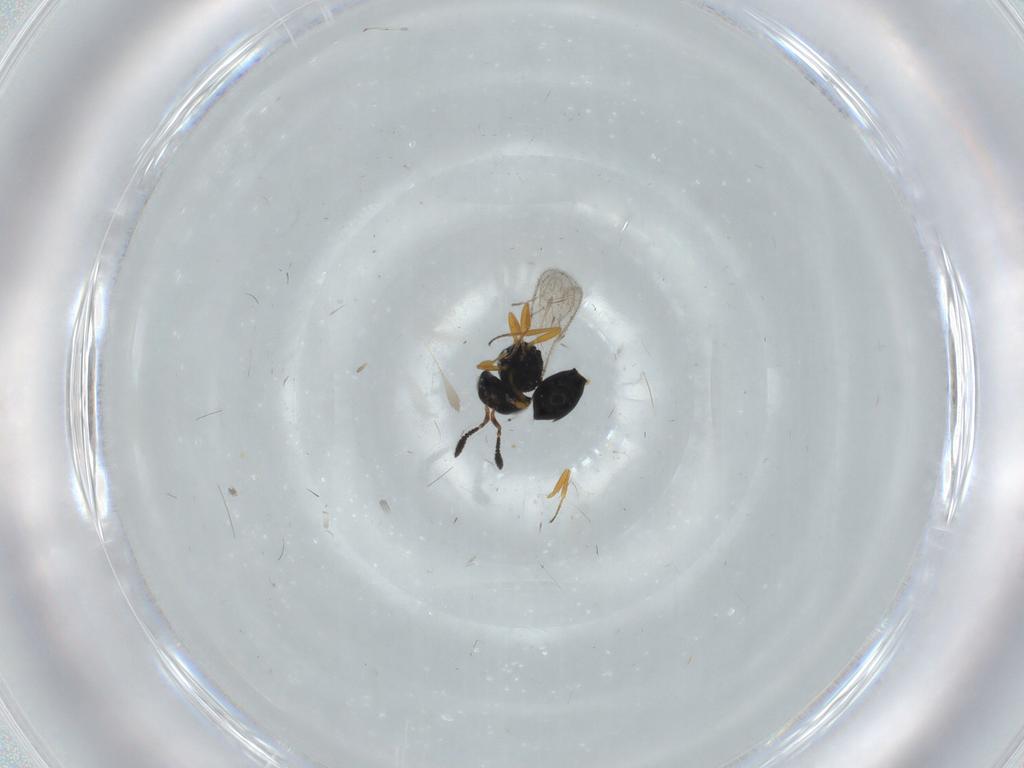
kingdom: Animalia
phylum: Arthropoda
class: Insecta
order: Hymenoptera
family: Scelionidae
